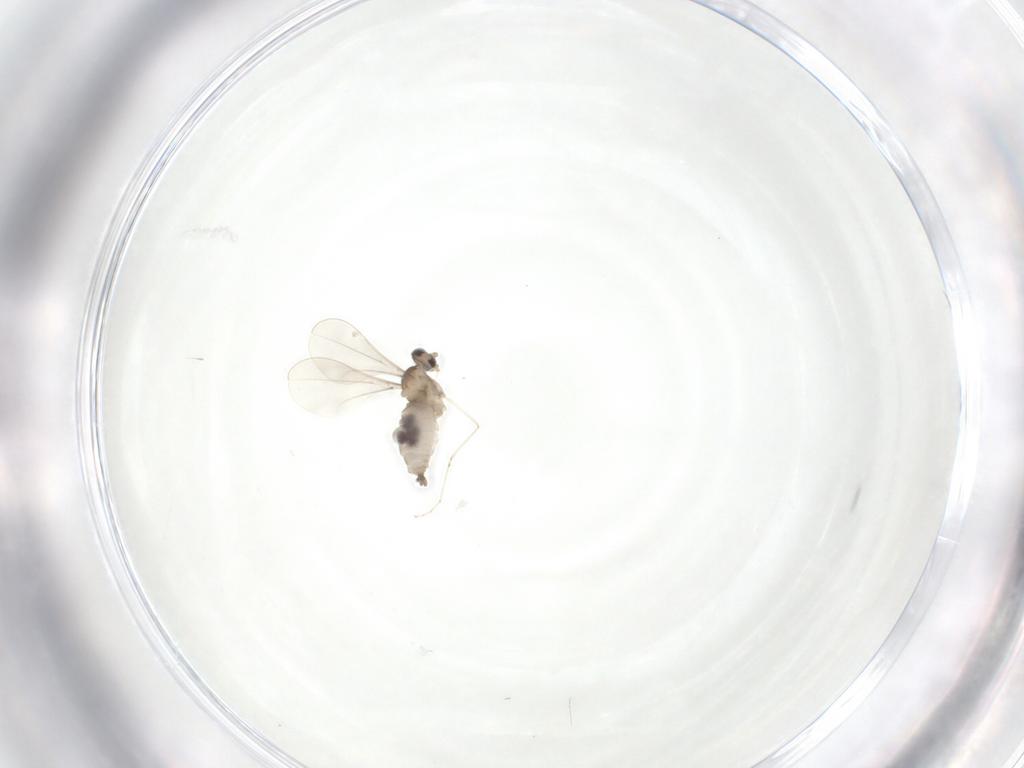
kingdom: Animalia
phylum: Arthropoda
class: Insecta
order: Diptera
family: Cecidomyiidae
